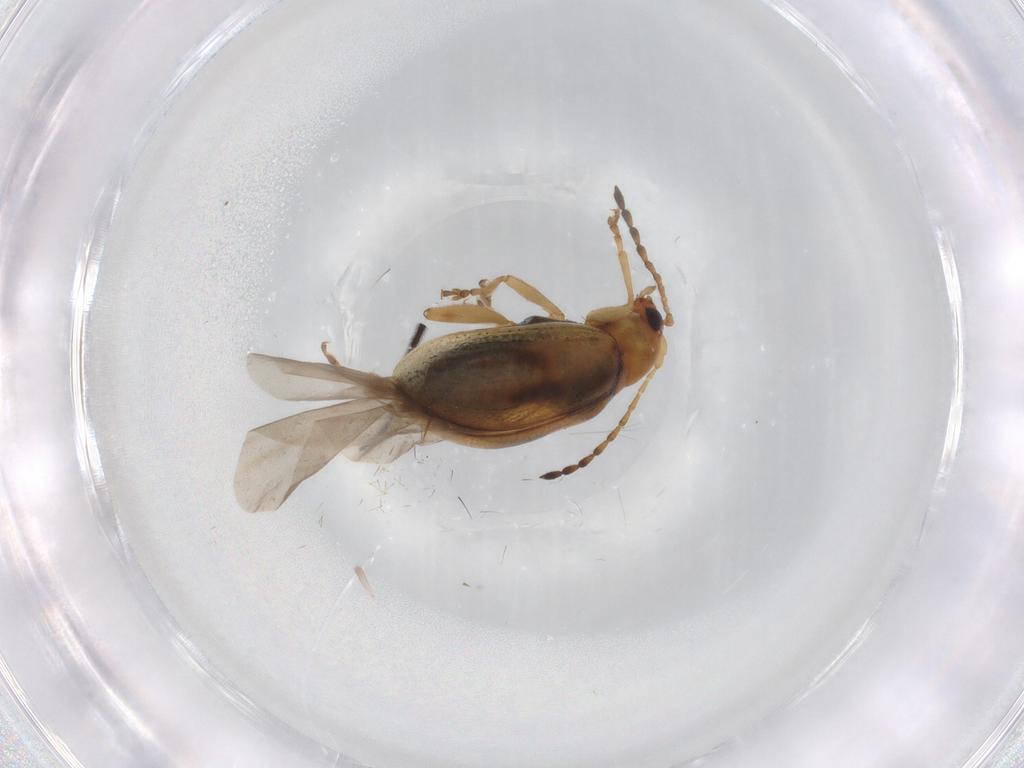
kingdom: Animalia
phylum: Arthropoda
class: Insecta
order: Coleoptera
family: Chrysomelidae
